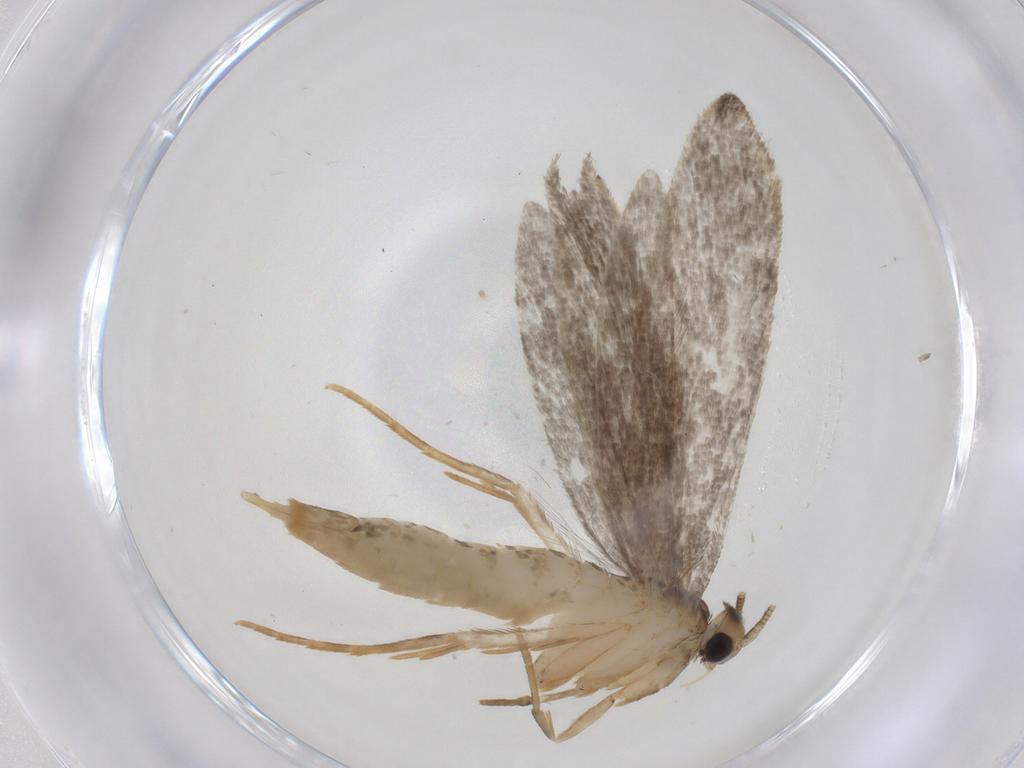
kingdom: Animalia
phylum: Arthropoda
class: Insecta
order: Lepidoptera
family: Tineidae
